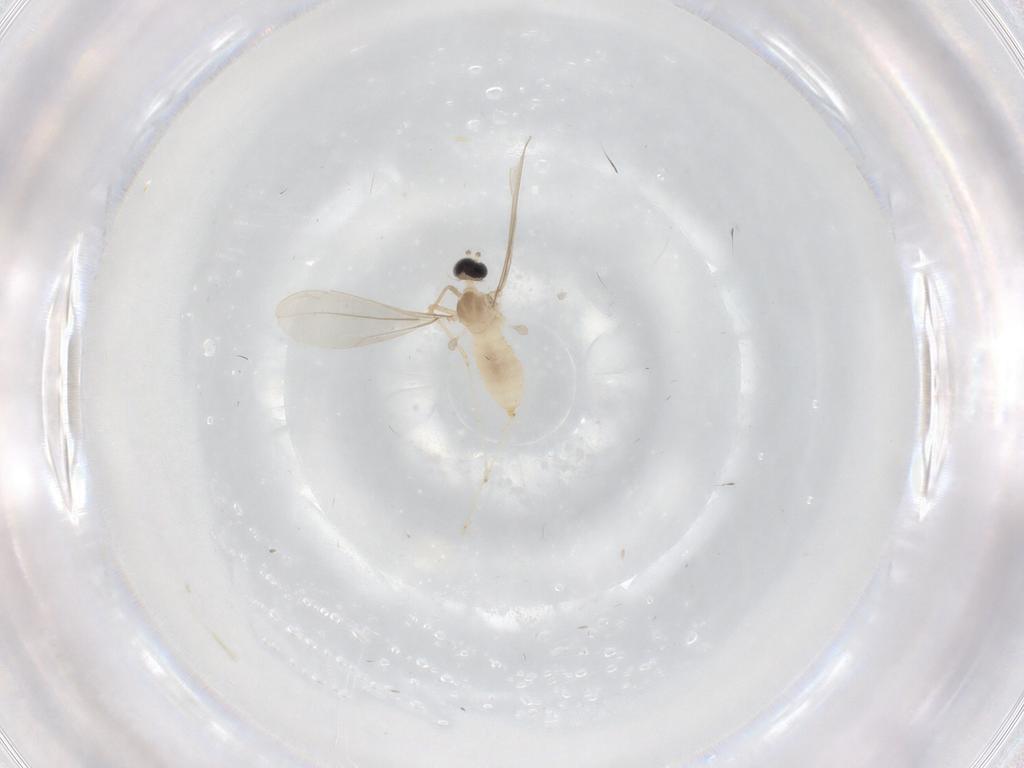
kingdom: Animalia
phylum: Arthropoda
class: Insecta
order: Diptera
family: Cecidomyiidae
